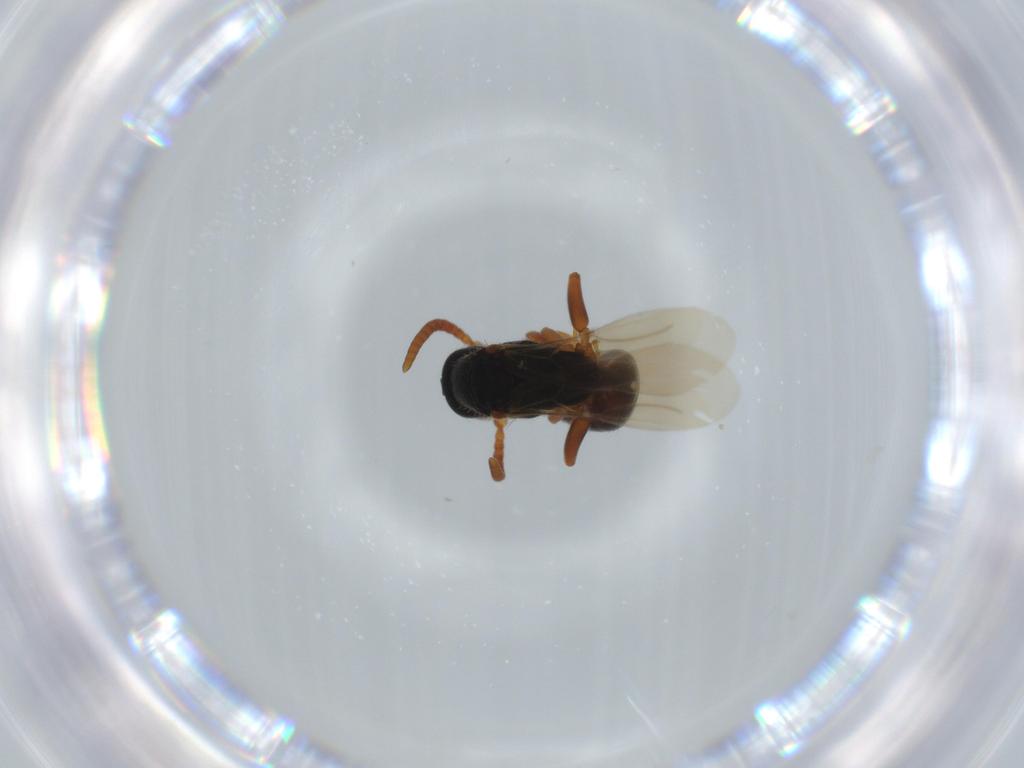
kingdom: Animalia
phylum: Arthropoda
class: Insecta
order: Hymenoptera
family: Bethylidae
